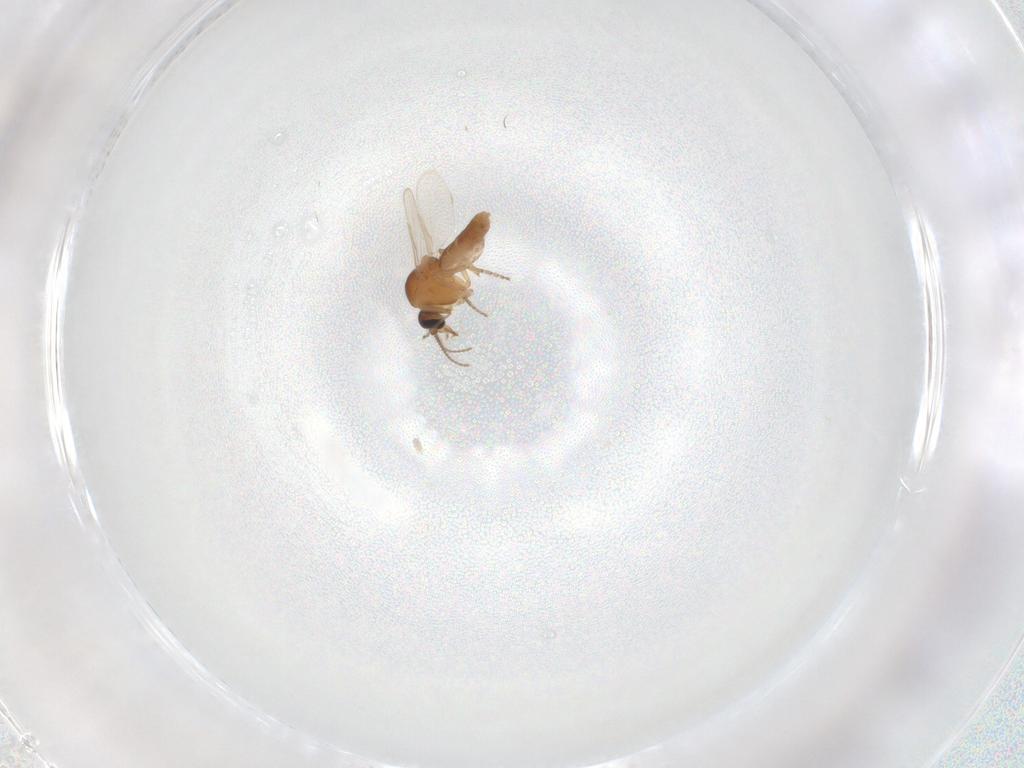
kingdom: Animalia
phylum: Arthropoda
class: Insecta
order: Diptera
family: Ceratopogonidae
